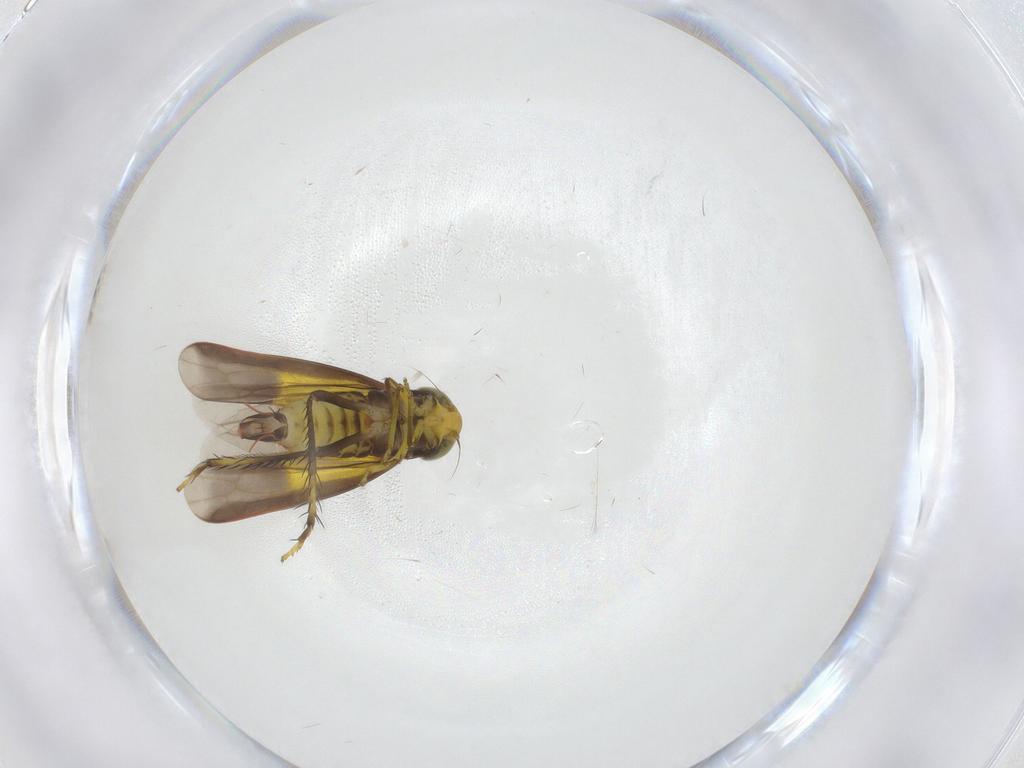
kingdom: Animalia
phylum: Arthropoda
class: Insecta
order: Hemiptera
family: Cicadellidae
